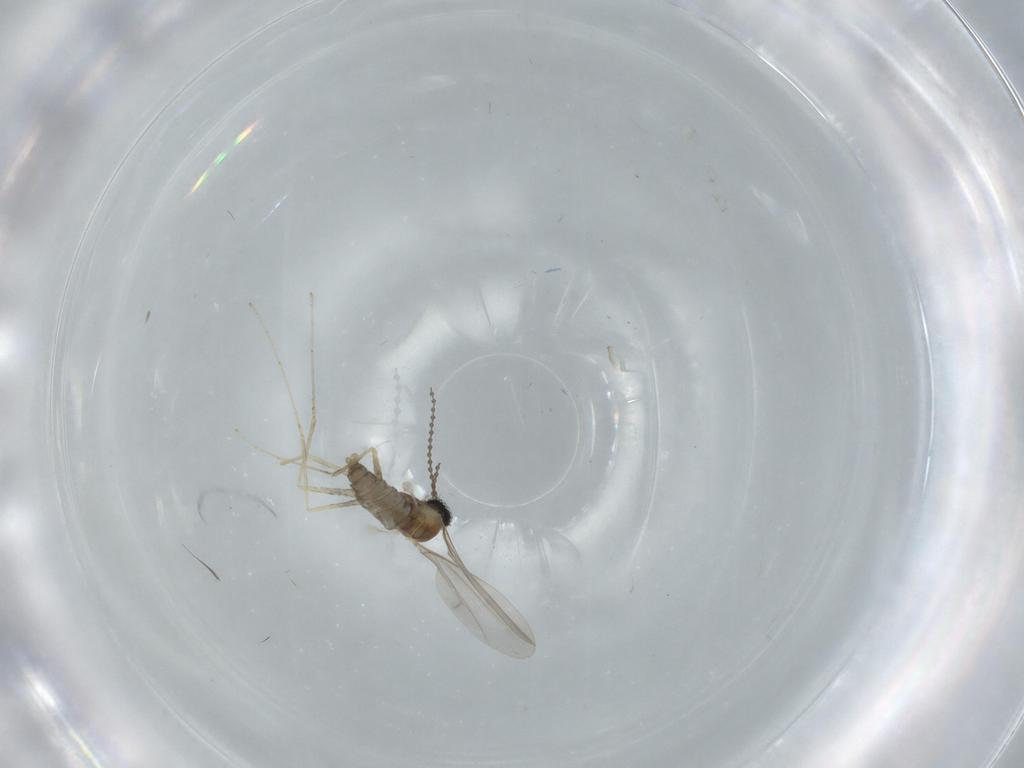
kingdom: Animalia
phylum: Arthropoda
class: Insecta
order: Diptera
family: Cecidomyiidae
